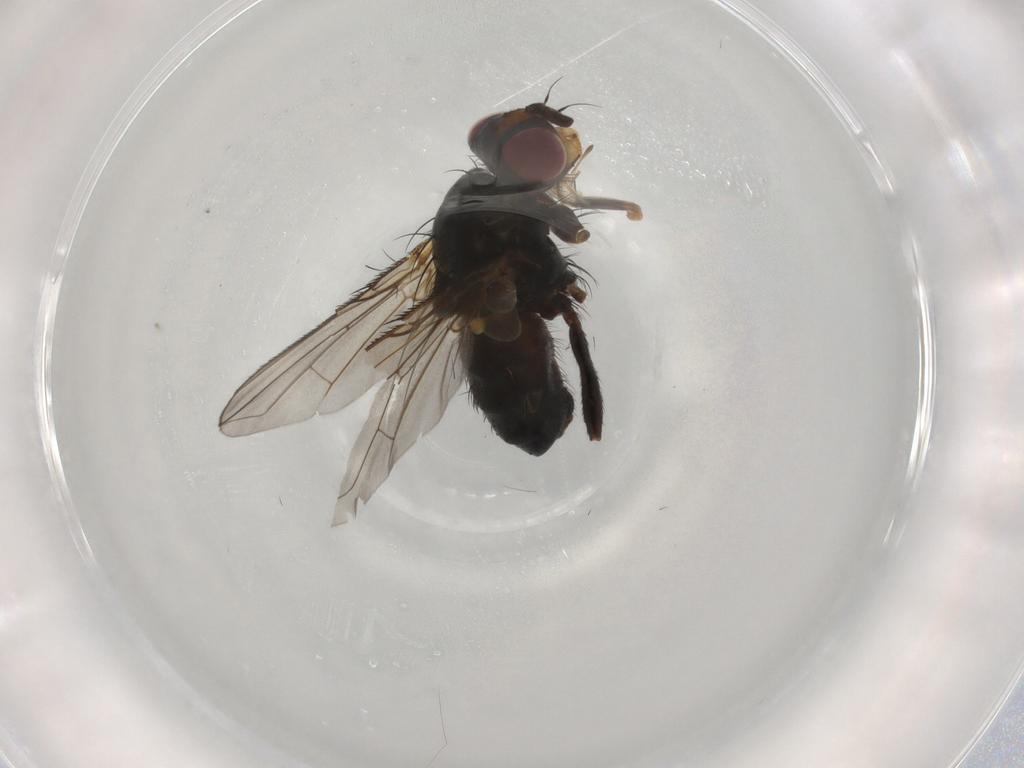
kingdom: Animalia
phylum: Arthropoda
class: Insecta
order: Diptera
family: Calliphoridae
